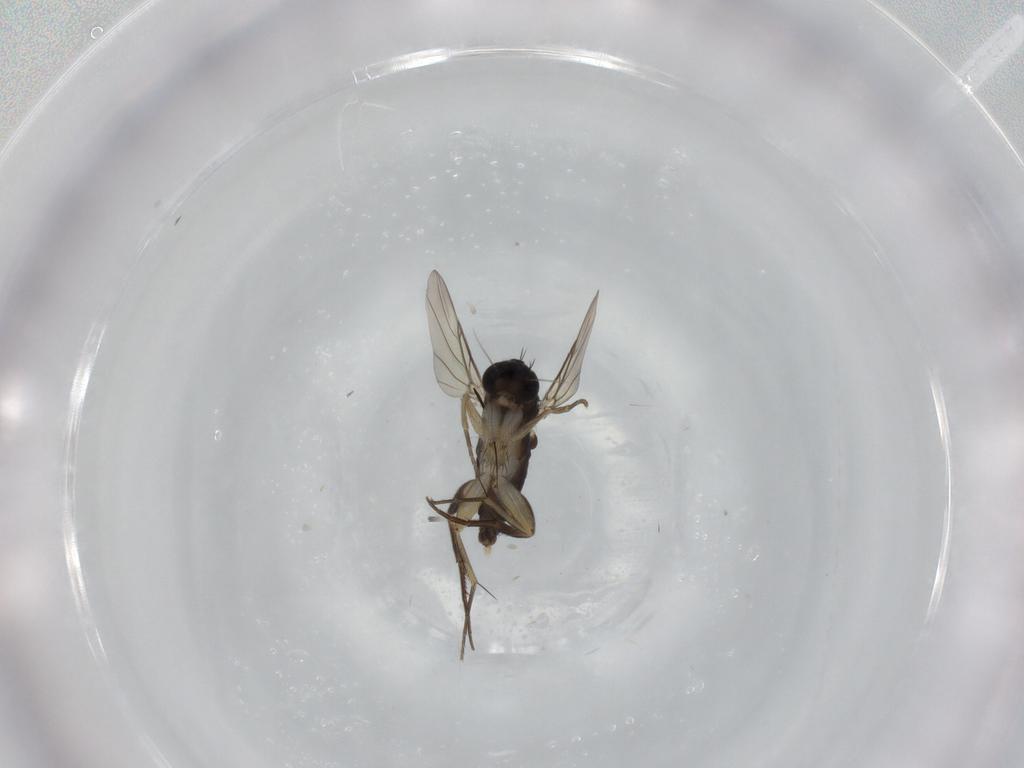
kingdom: Animalia
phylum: Arthropoda
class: Insecta
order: Diptera
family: Phoridae
